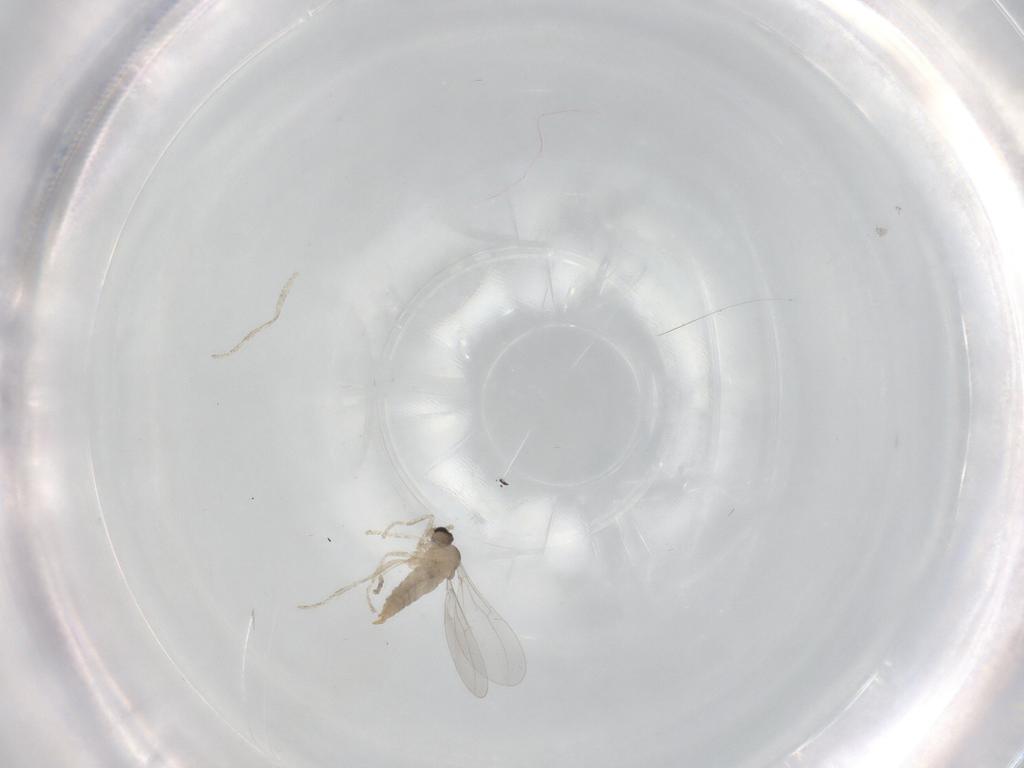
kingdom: Animalia
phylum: Arthropoda
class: Insecta
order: Diptera
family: Cecidomyiidae
